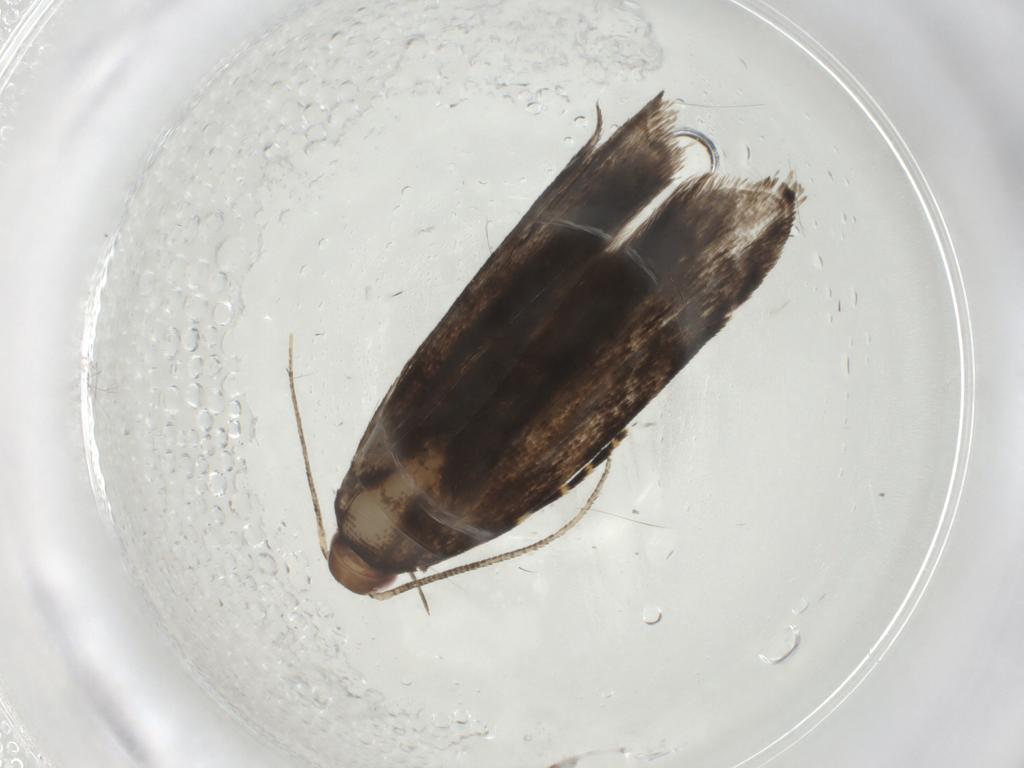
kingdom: Animalia
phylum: Arthropoda
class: Insecta
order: Lepidoptera
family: Gelechiidae
